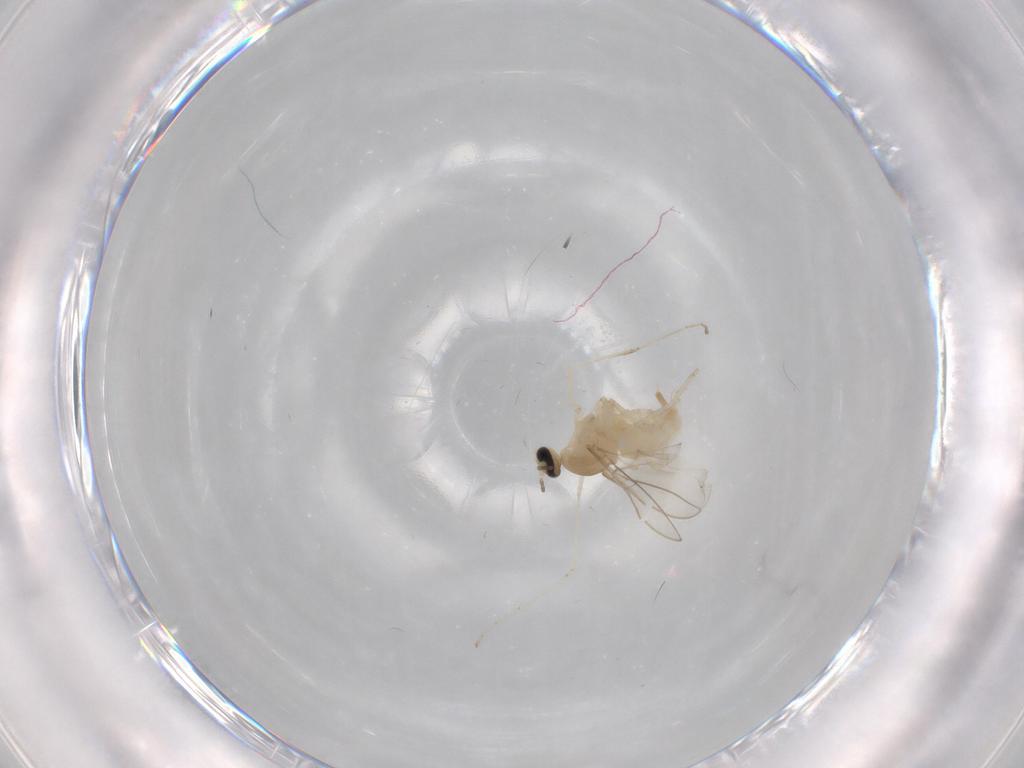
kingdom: Animalia
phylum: Arthropoda
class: Insecta
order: Diptera
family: Cecidomyiidae
